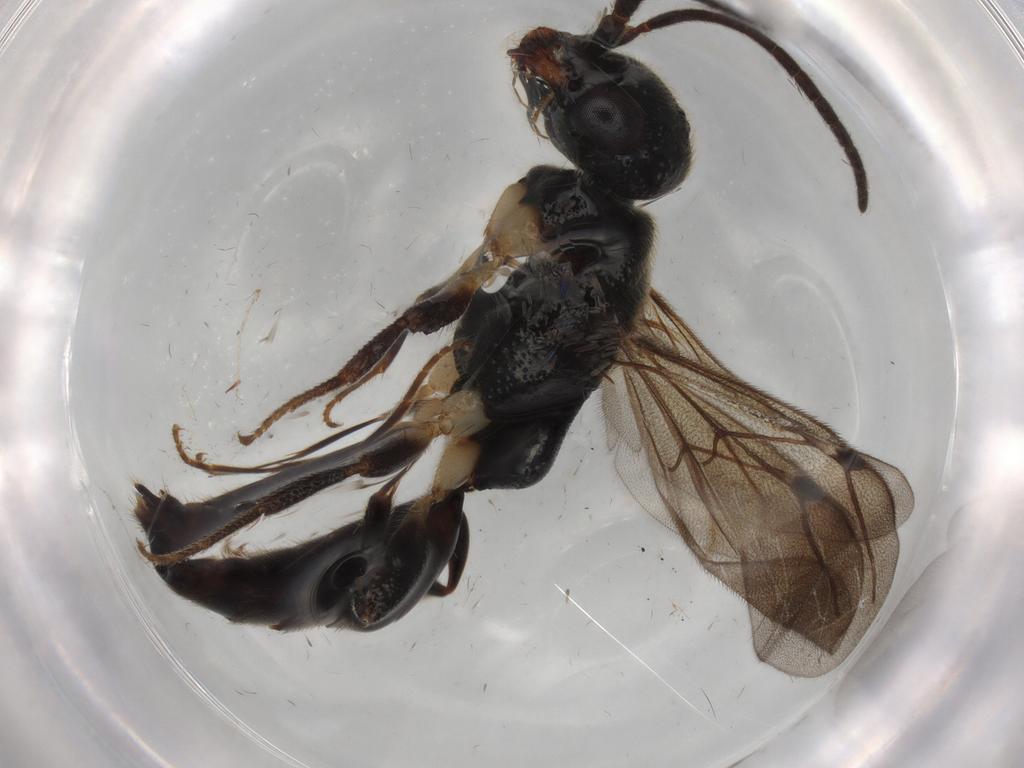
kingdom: Animalia
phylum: Arthropoda
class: Insecta
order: Hymenoptera
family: Bethylidae
